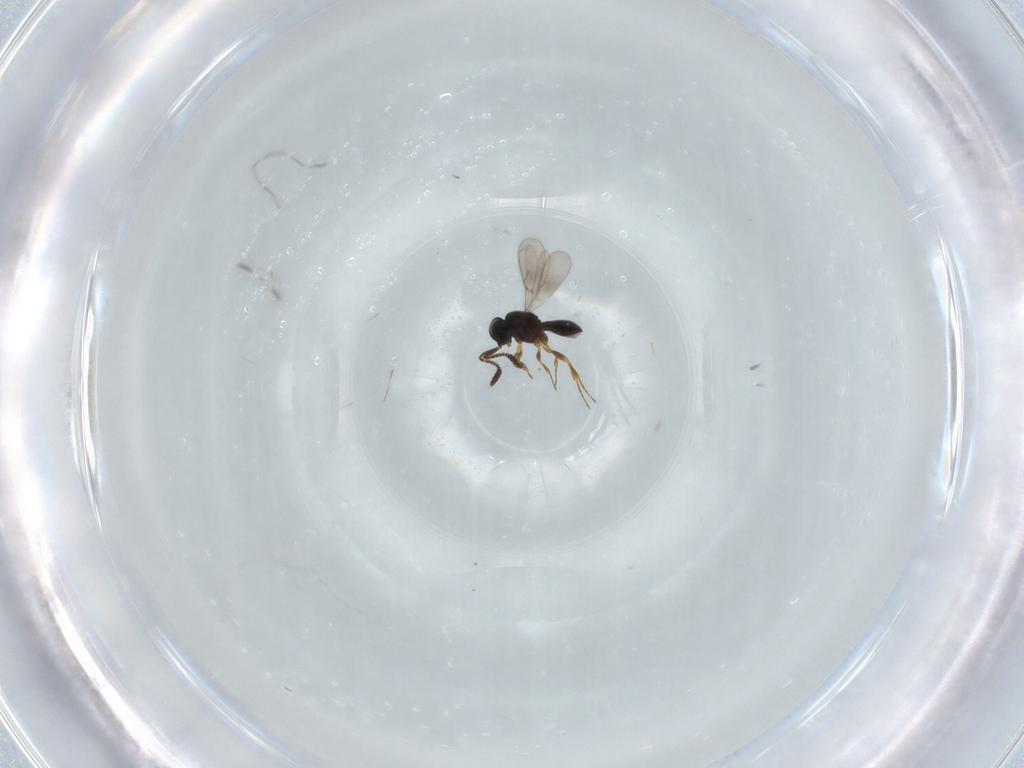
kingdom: Animalia
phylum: Arthropoda
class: Insecta
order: Hymenoptera
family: Scelionidae
